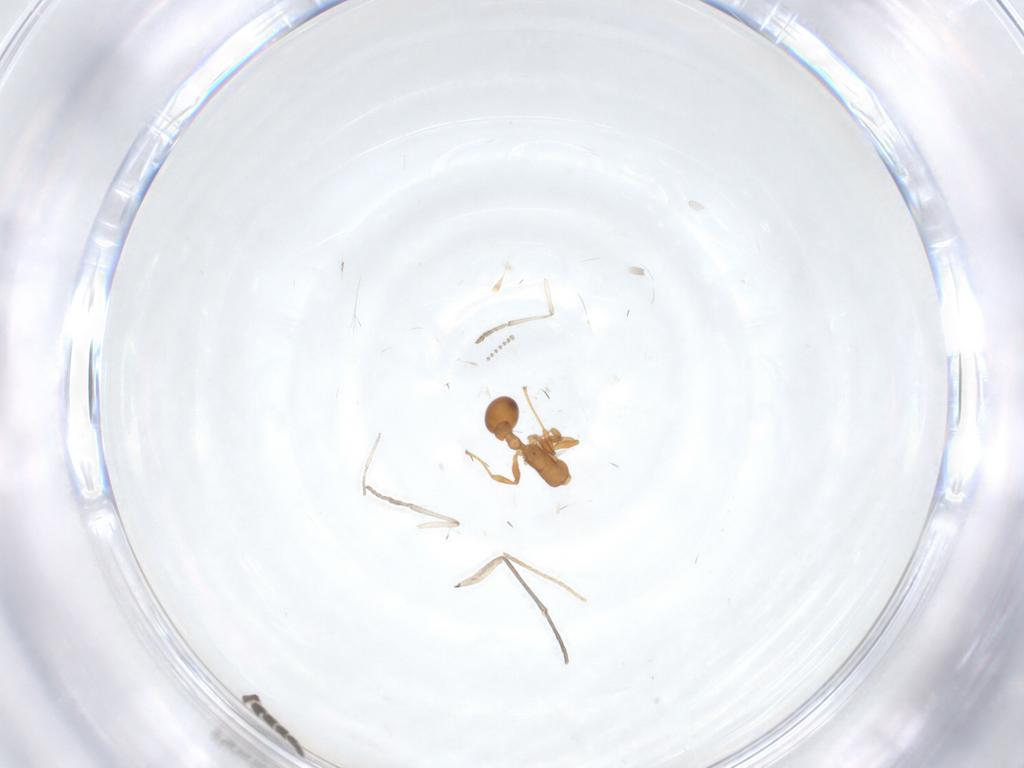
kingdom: Animalia
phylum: Arthropoda
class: Insecta
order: Hymenoptera
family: Formicidae
